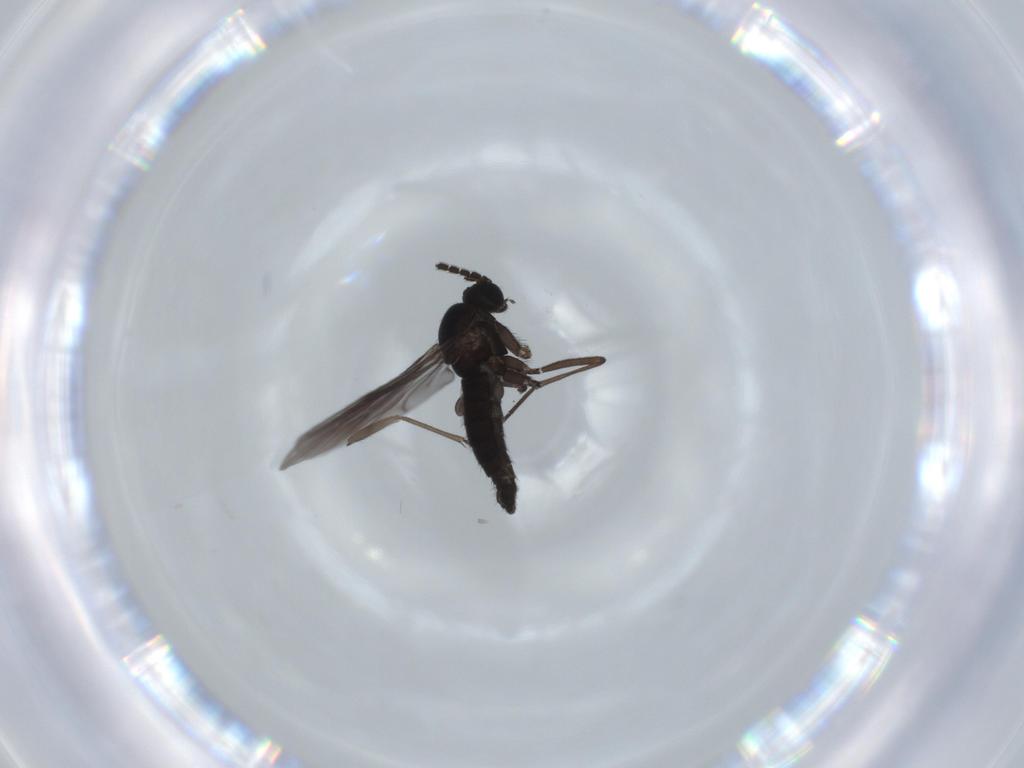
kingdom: Animalia
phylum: Arthropoda
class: Insecta
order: Diptera
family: Sciaridae
